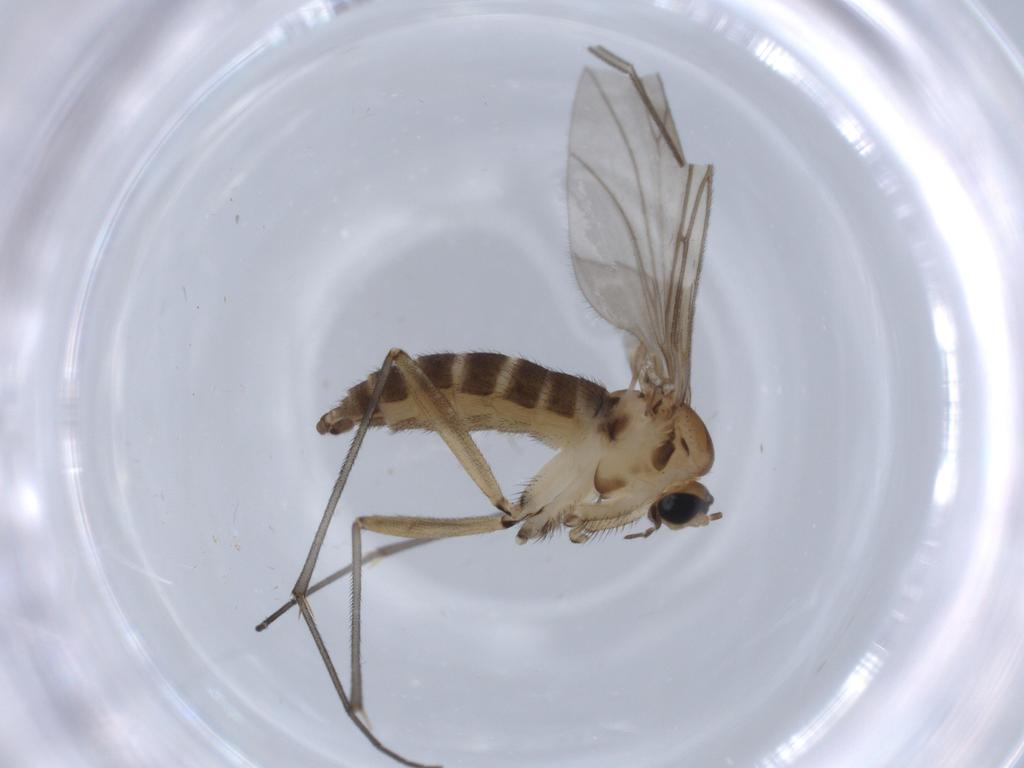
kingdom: Animalia
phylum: Arthropoda
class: Insecta
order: Diptera
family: Sciaridae
